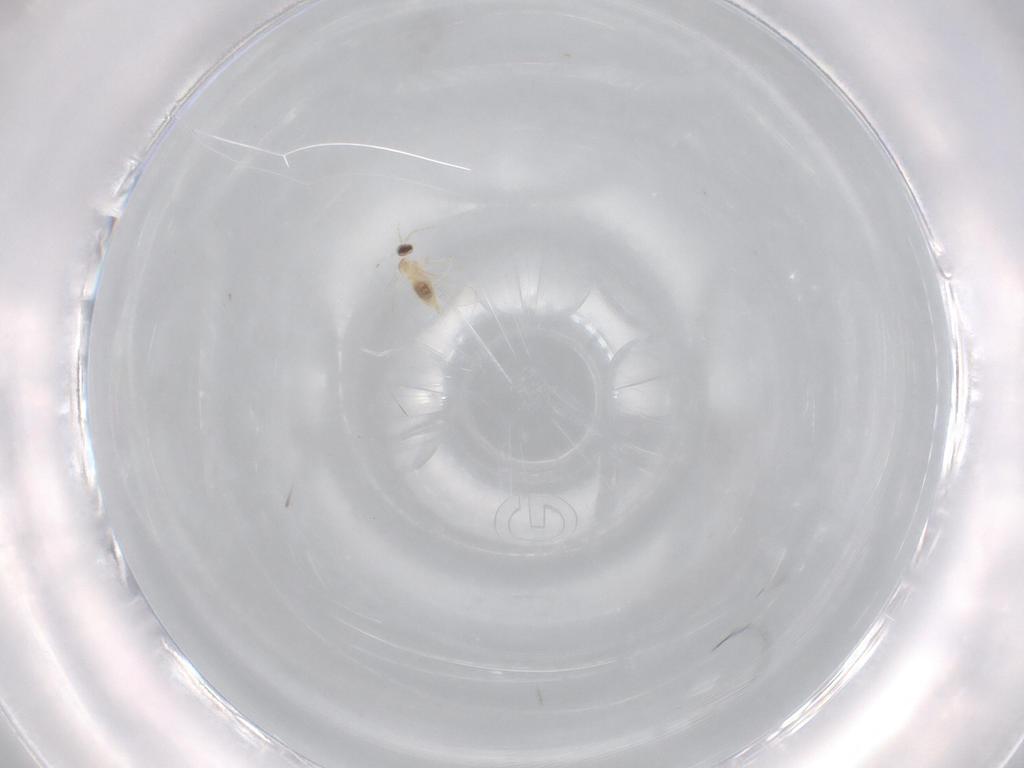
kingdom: Animalia
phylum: Arthropoda
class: Insecta
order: Diptera
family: Cecidomyiidae
